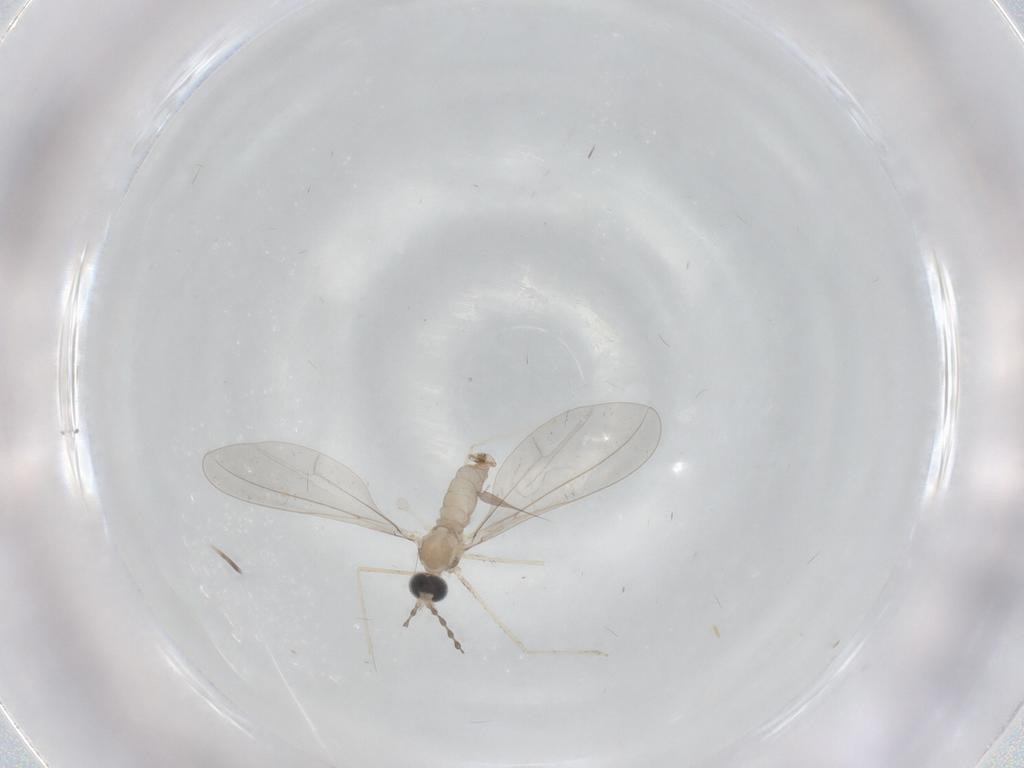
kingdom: Animalia
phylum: Arthropoda
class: Insecta
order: Diptera
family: Cecidomyiidae
